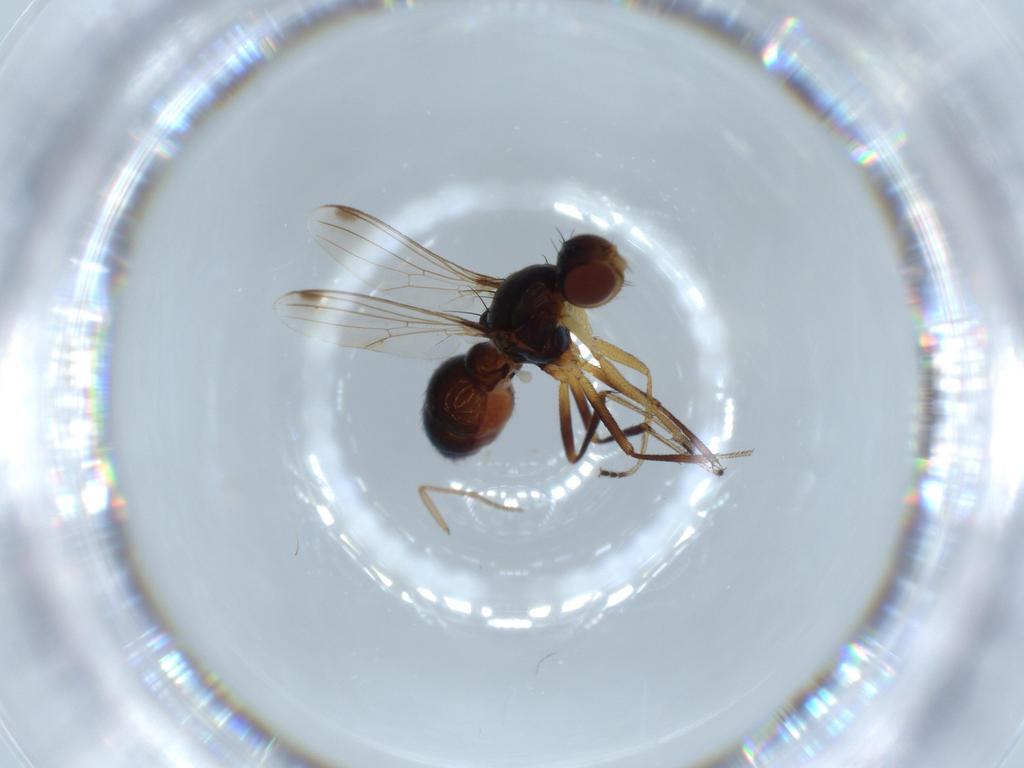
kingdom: Animalia
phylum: Arthropoda
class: Insecta
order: Diptera
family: Sepsidae
